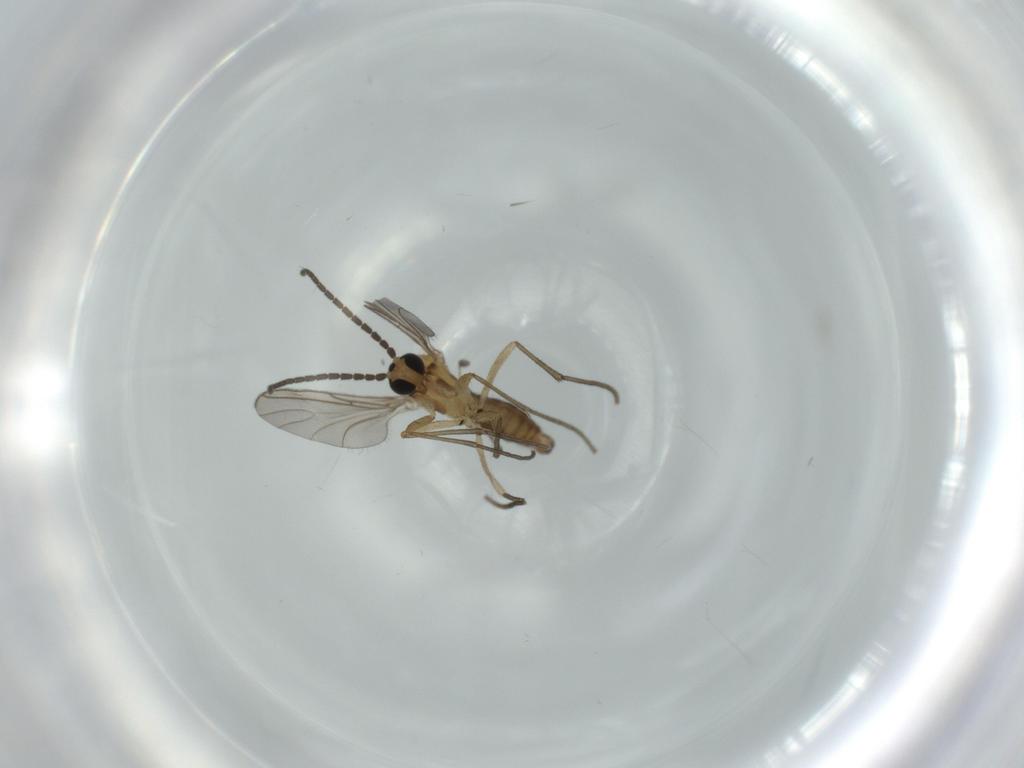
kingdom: Animalia
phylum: Arthropoda
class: Insecta
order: Diptera
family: Sciaridae
